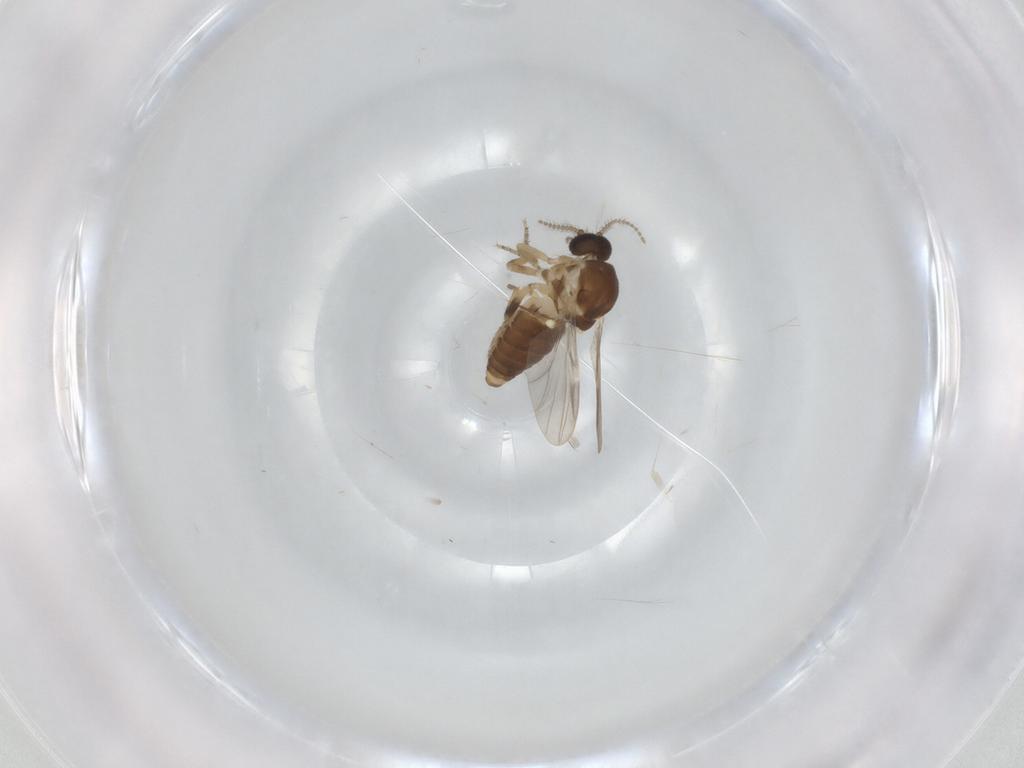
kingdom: Animalia
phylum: Arthropoda
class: Insecta
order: Diptera
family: Ceratopogonidae
